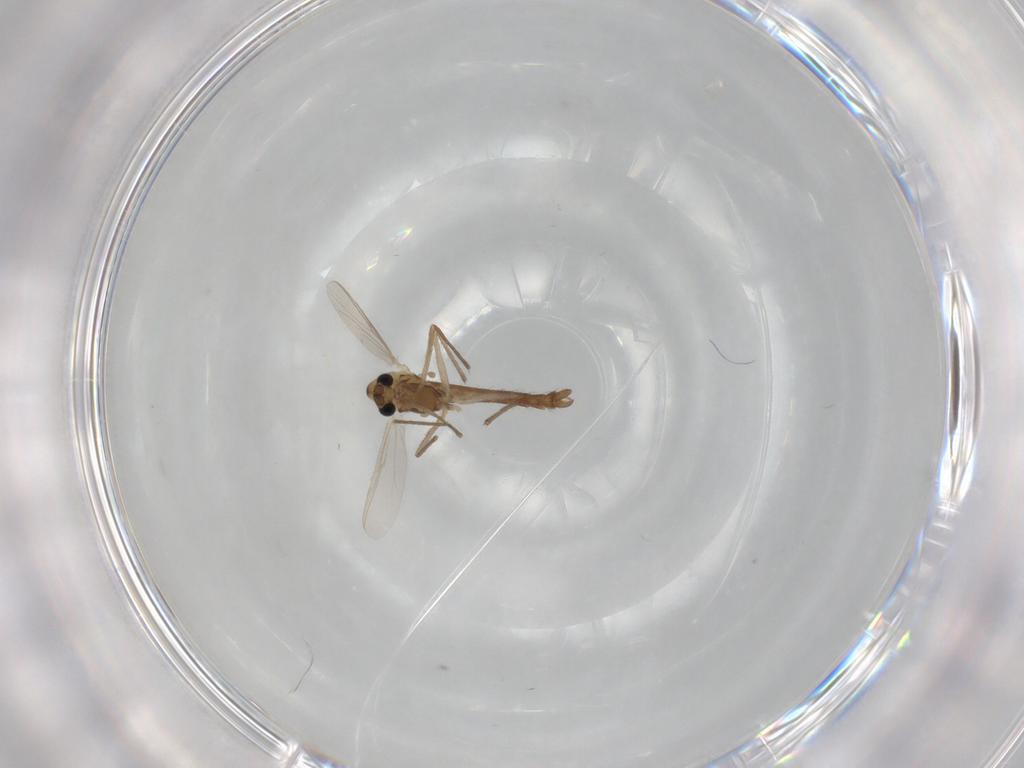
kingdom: Animalia
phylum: Arthropoda
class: Insecta
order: Diptera
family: Chironomidae
